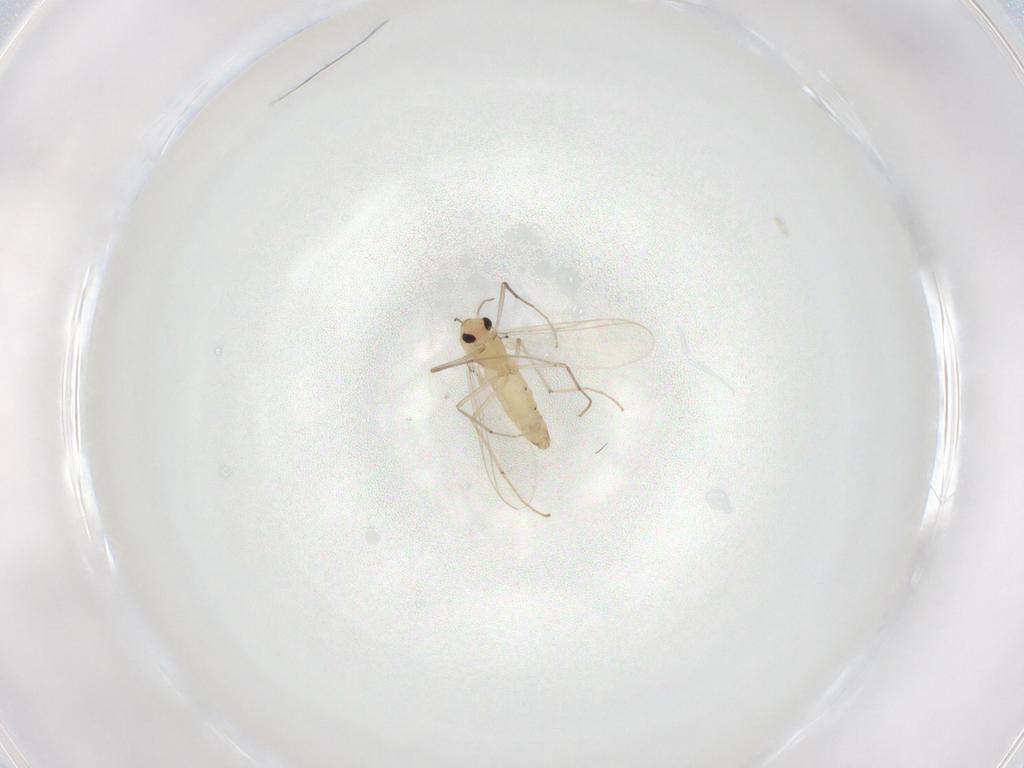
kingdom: Animalia
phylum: Arthropoda
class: Insecta
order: Diptera
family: Chironomidae
